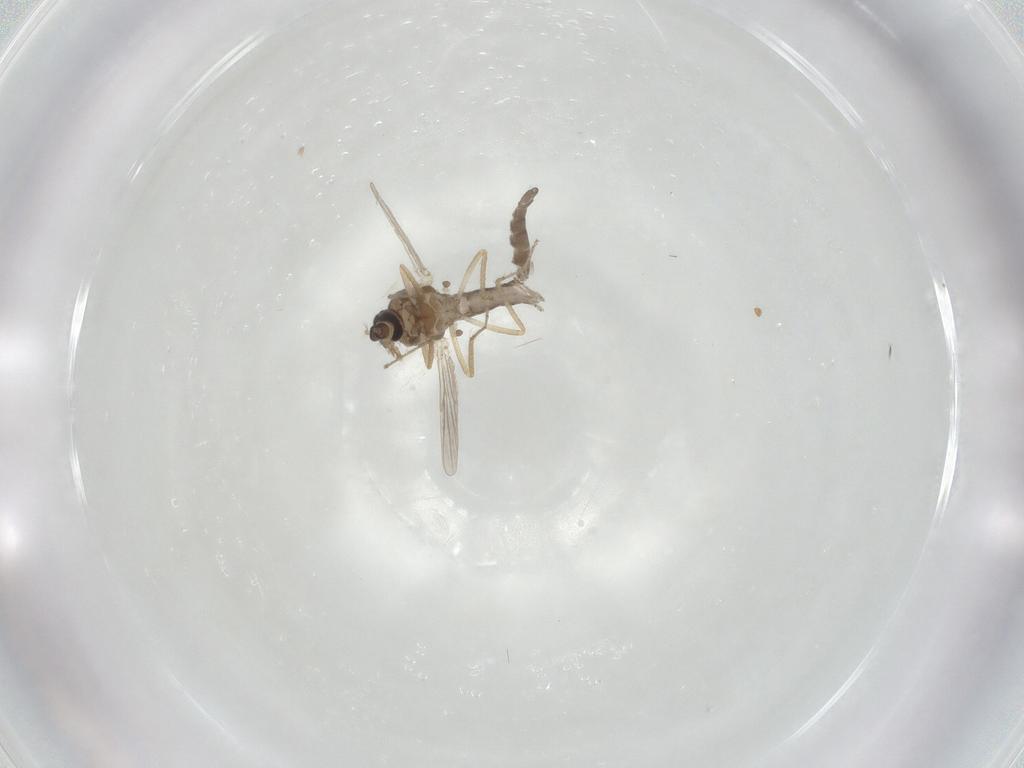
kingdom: Animalia
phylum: Arthropoda
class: Insecta
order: Diptera
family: Ceratopogonidae
